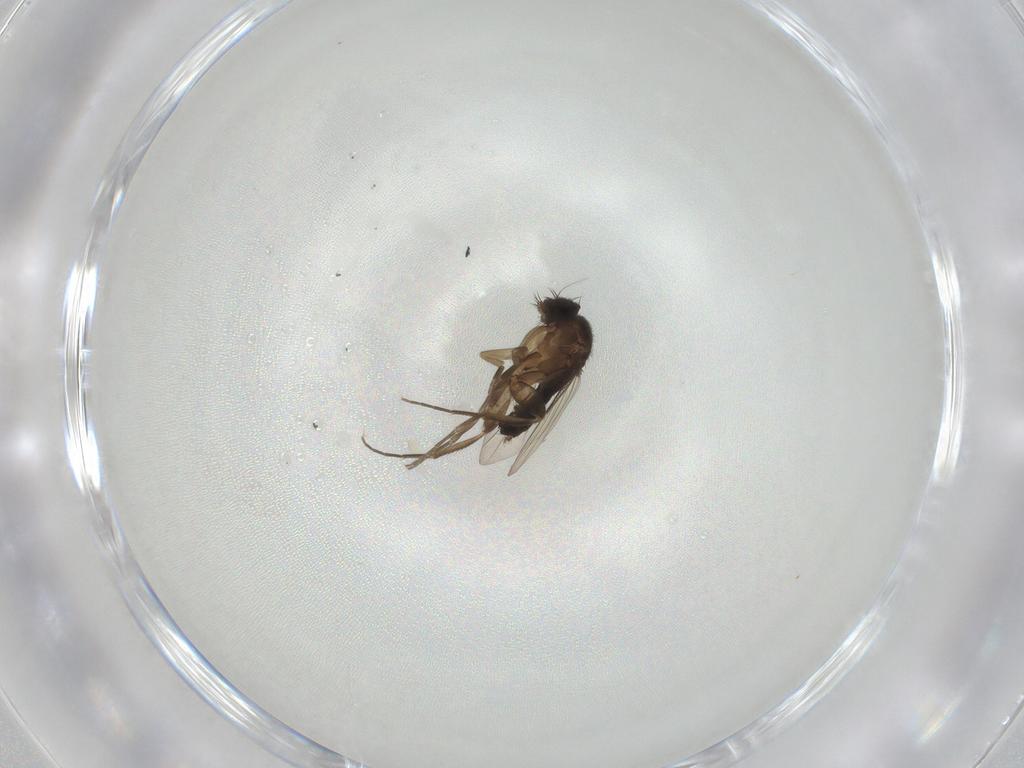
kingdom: Animalia
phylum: Arthropoda
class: Insecta
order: Diptera
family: Phoridae
